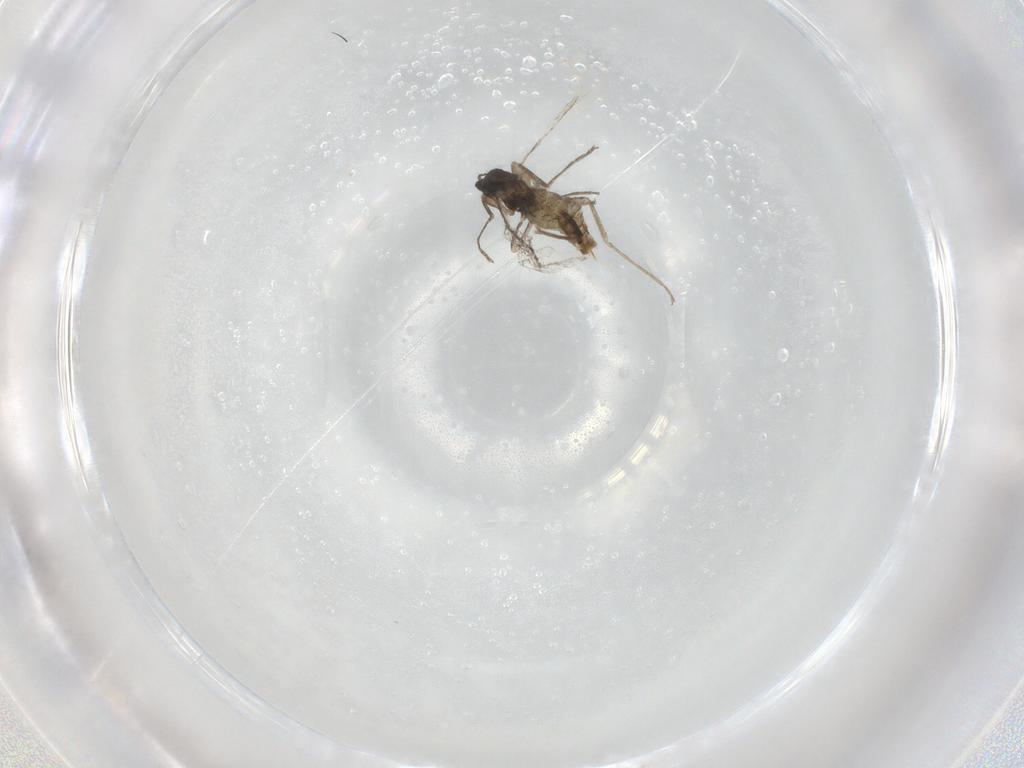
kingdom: Animalia
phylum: Arthropoda
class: Insecta
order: Diptera
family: Cecidomyiidae
